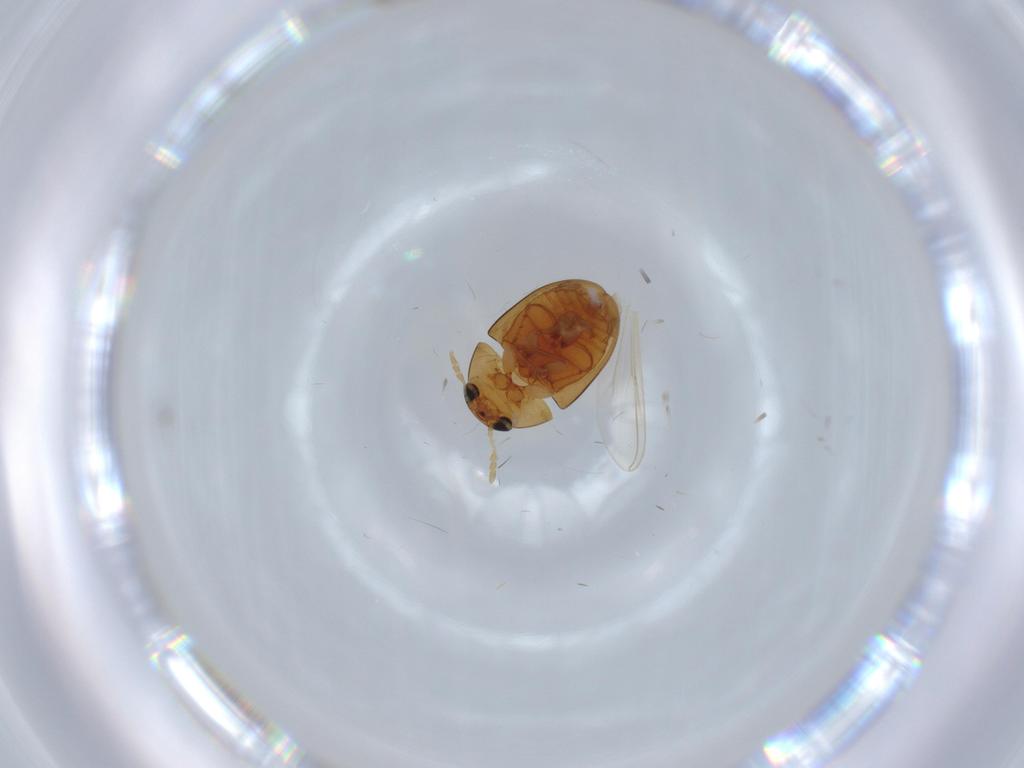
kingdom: Animalia
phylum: Arthropoda
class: Insecta
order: Coleoptera
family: Phalacridae
